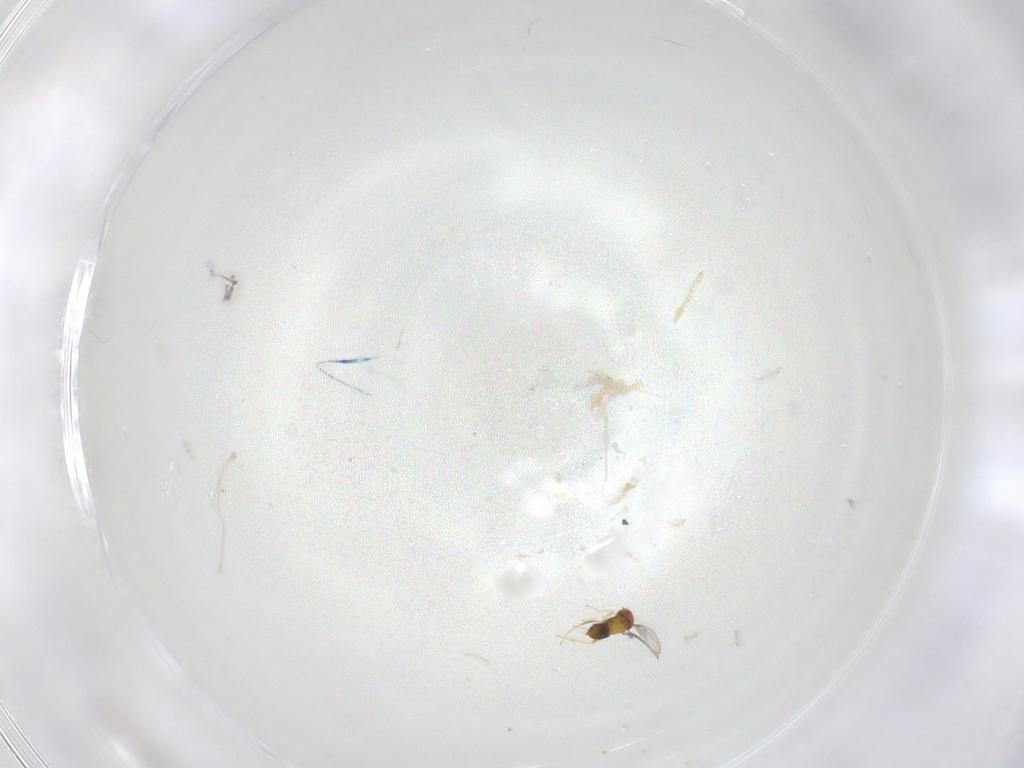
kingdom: Animalia
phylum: Arthropoda
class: Insecta
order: Hymenoptera
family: Trichogrammatidae
